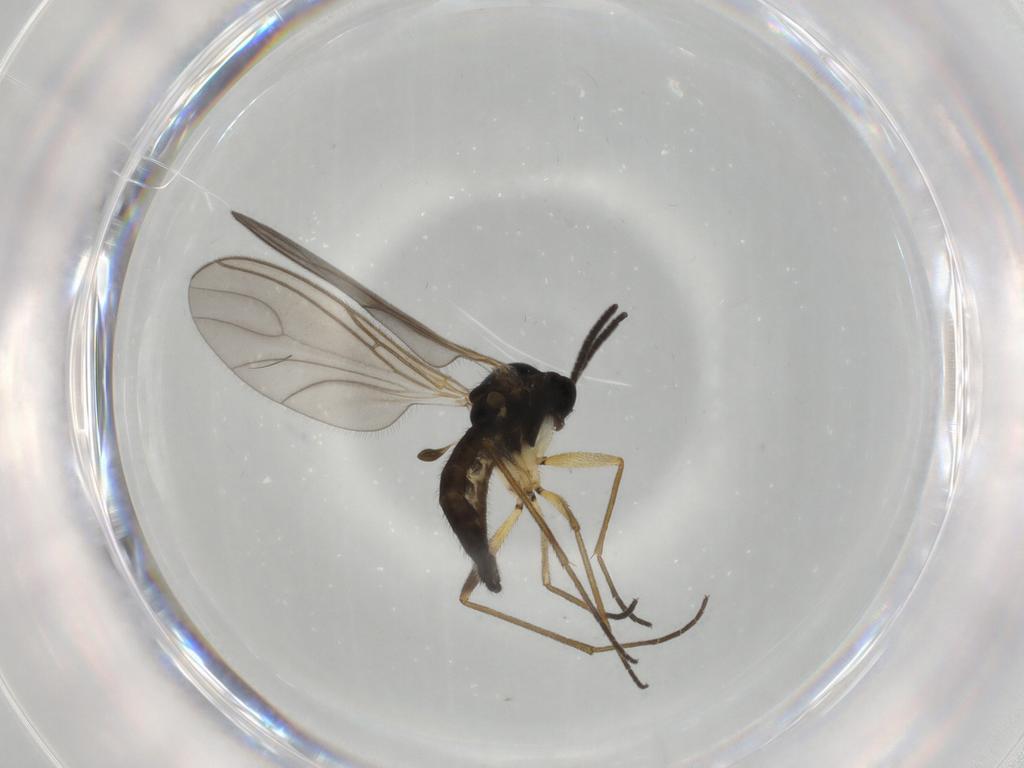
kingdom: Animalia
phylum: Arthropoda
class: Insecta
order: Diptera
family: Sciaridae
